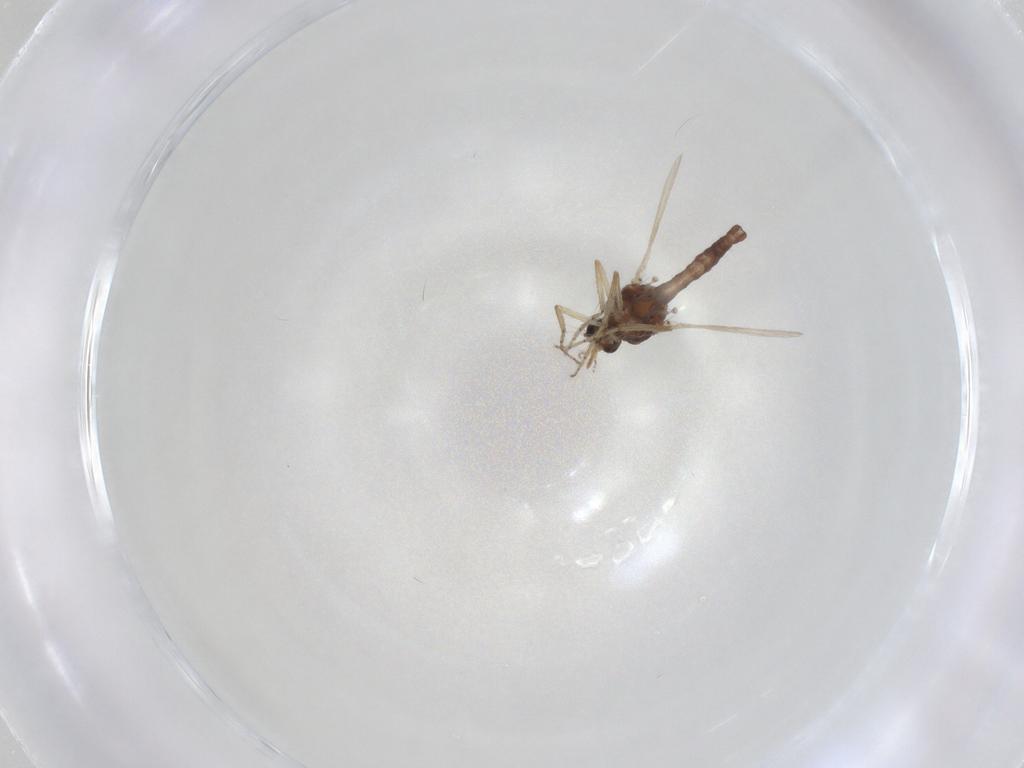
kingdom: Animalia
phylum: Arthropoda
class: Insecta
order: Diptera
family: Ceratopogonidae
